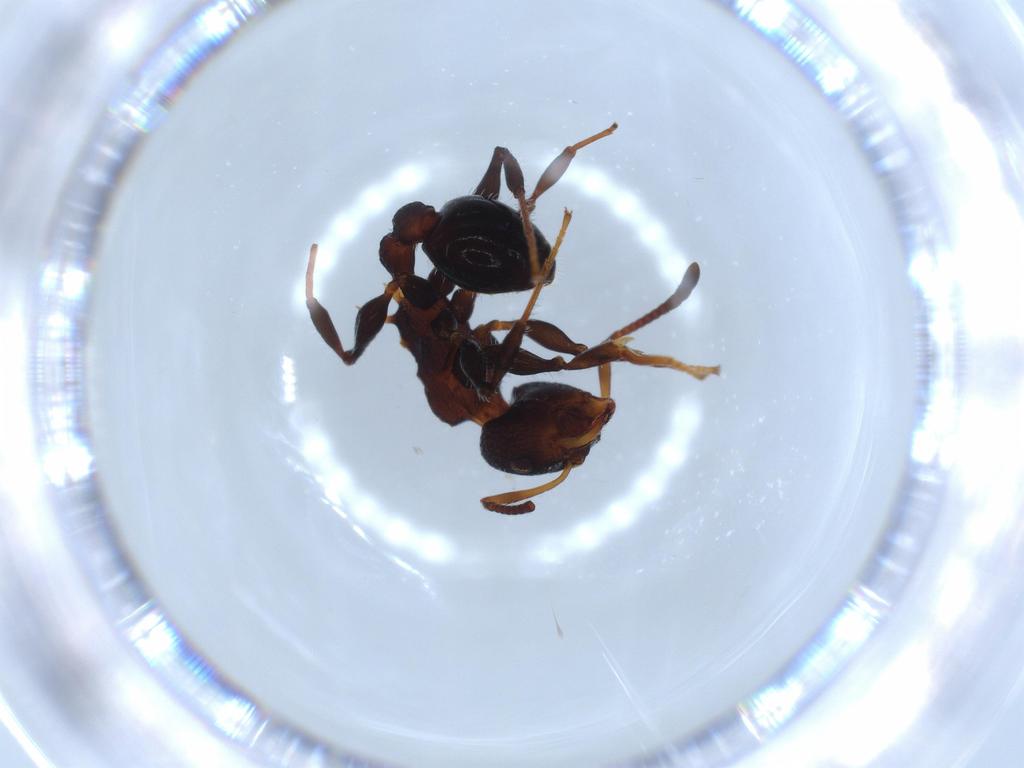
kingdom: Animalia
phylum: Arthropoda
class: Insecta
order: Hymenoptera
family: Formicidae
